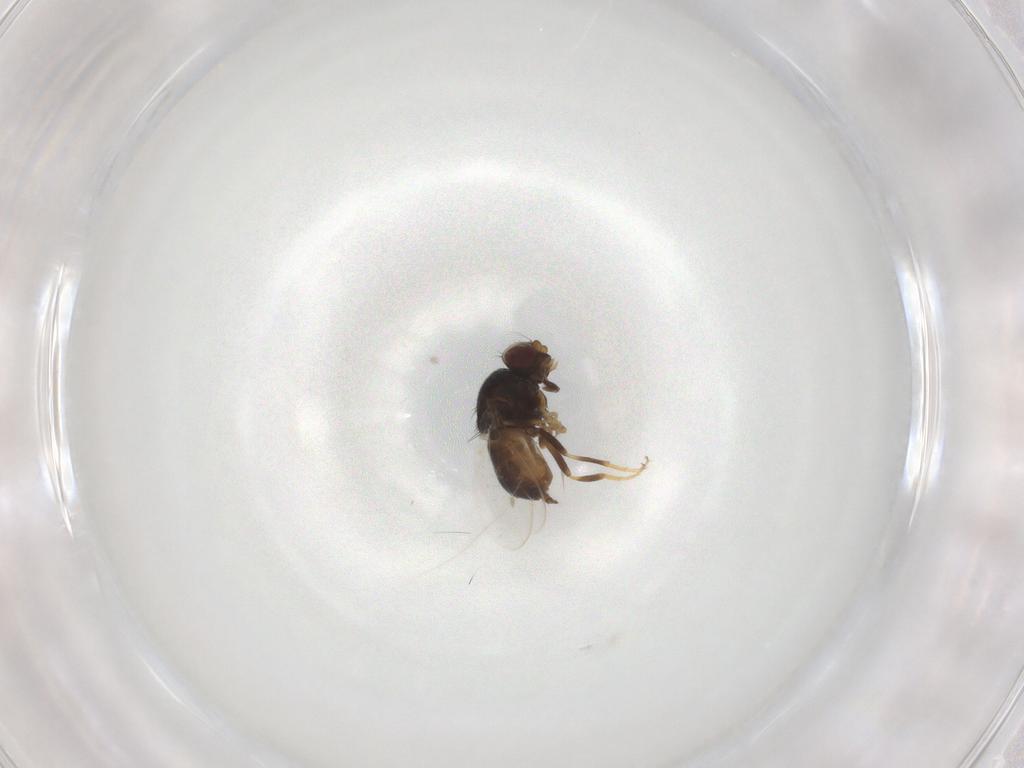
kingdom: Animalia
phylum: Arthropoda
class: Insecta
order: Diptera
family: Chloropidae
